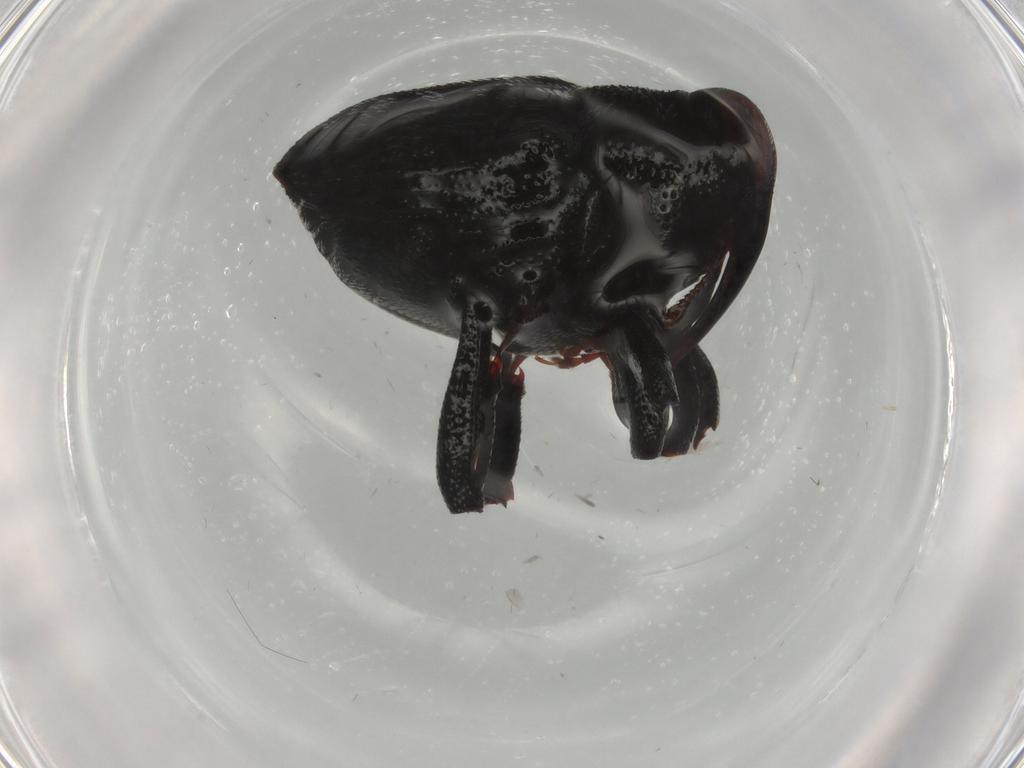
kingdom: Animalia
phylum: Arthropoda
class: Insecta
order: Coleoptera
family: Curculionidae
